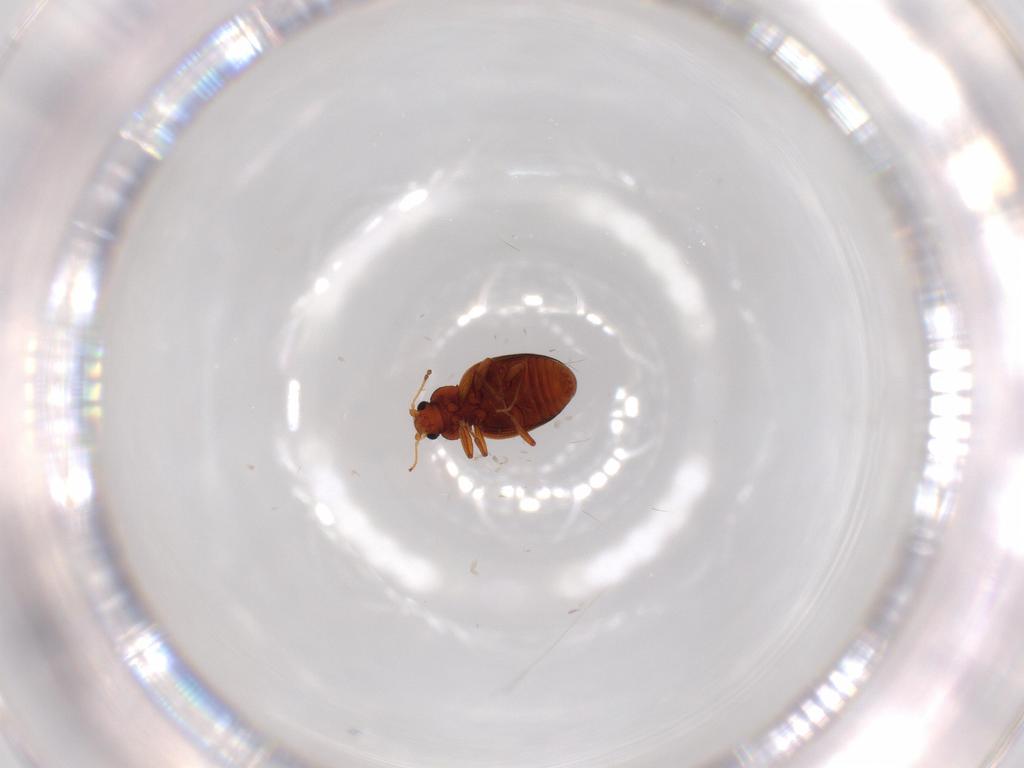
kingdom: Animalia
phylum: Arthropoda
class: Insecta
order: Coleoptera
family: Latridiidae
